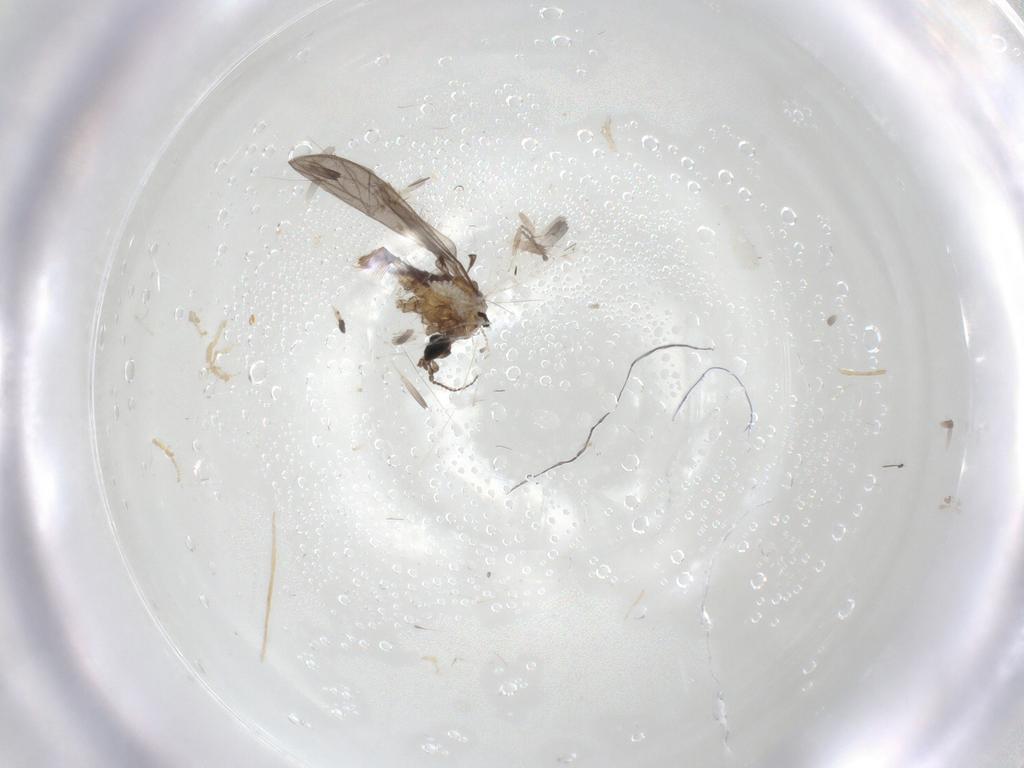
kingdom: Animalia
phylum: Arthropoda
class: Insecta
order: Diptera
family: Limoniidae
